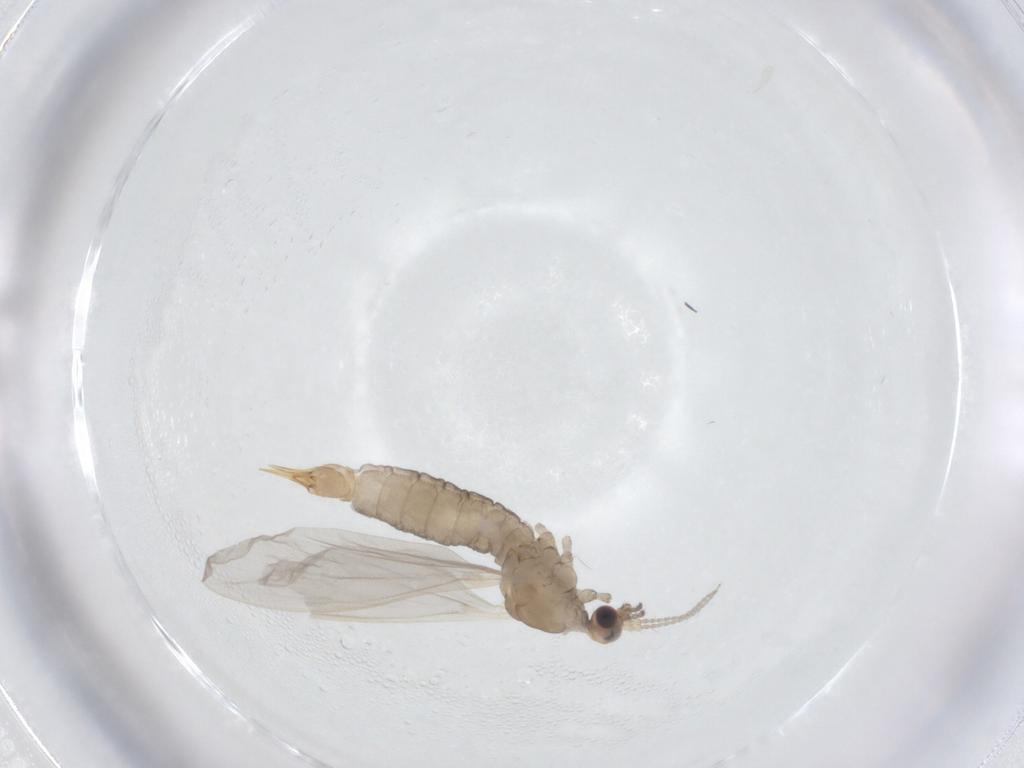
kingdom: Animalia
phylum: Arthropoda
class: Insecta
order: Diptera
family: Limoniidae
